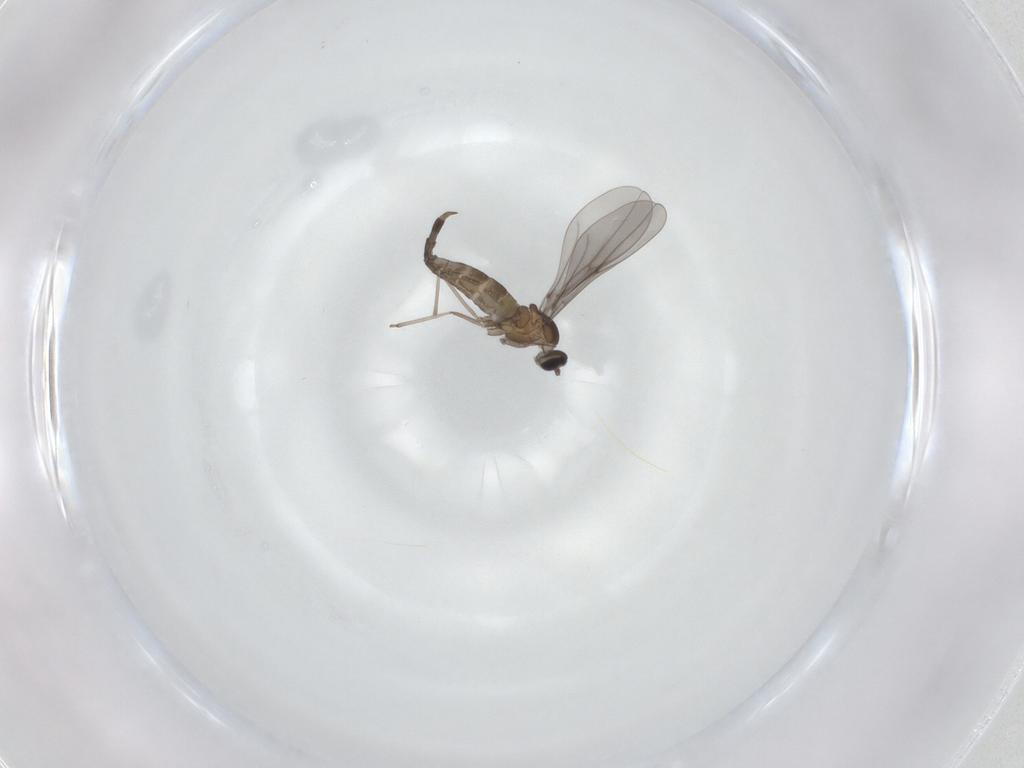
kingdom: Animalia
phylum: Arthropoda
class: Insecta
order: Diptera
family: Cecidomyiidae
